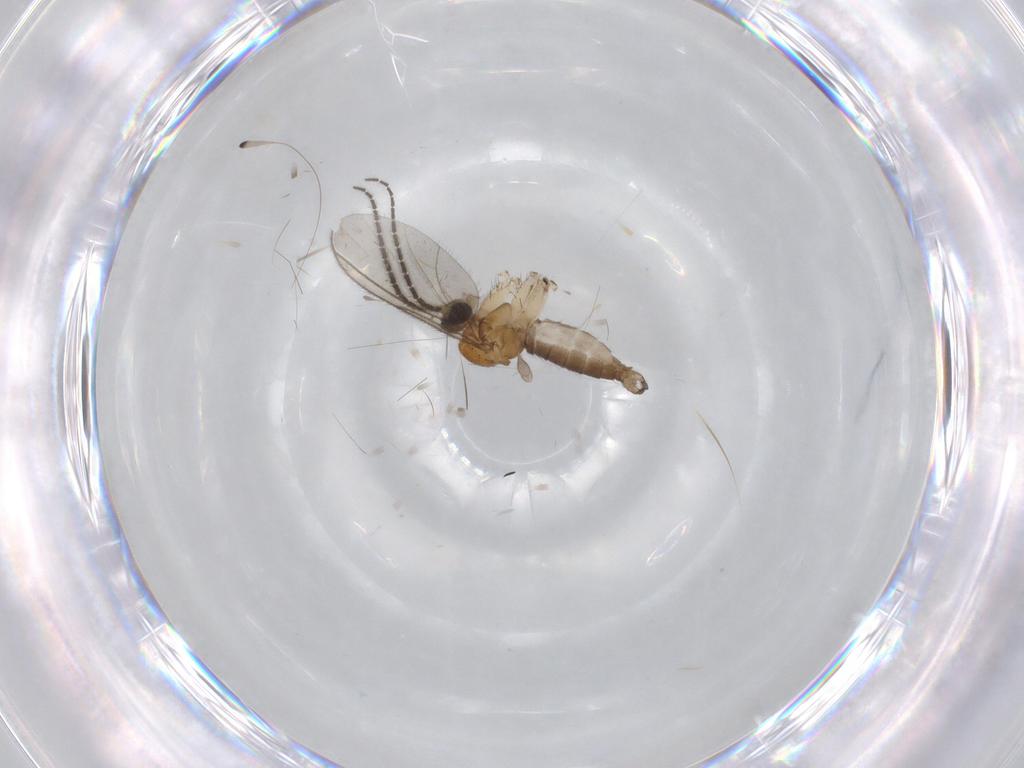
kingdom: Animalia
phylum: Arthropoda
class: Insecta
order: Diptera
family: Sciaridae
